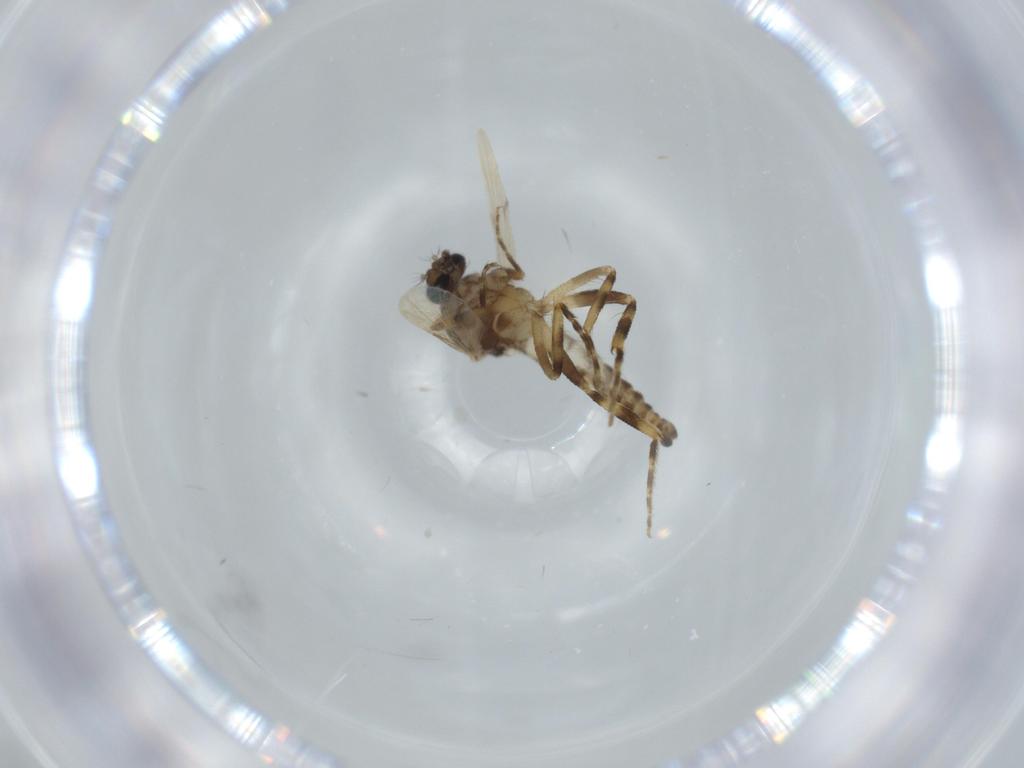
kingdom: Animalia
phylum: Arthropoda
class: Insecta
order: Diptera
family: Ceratopogonidae
